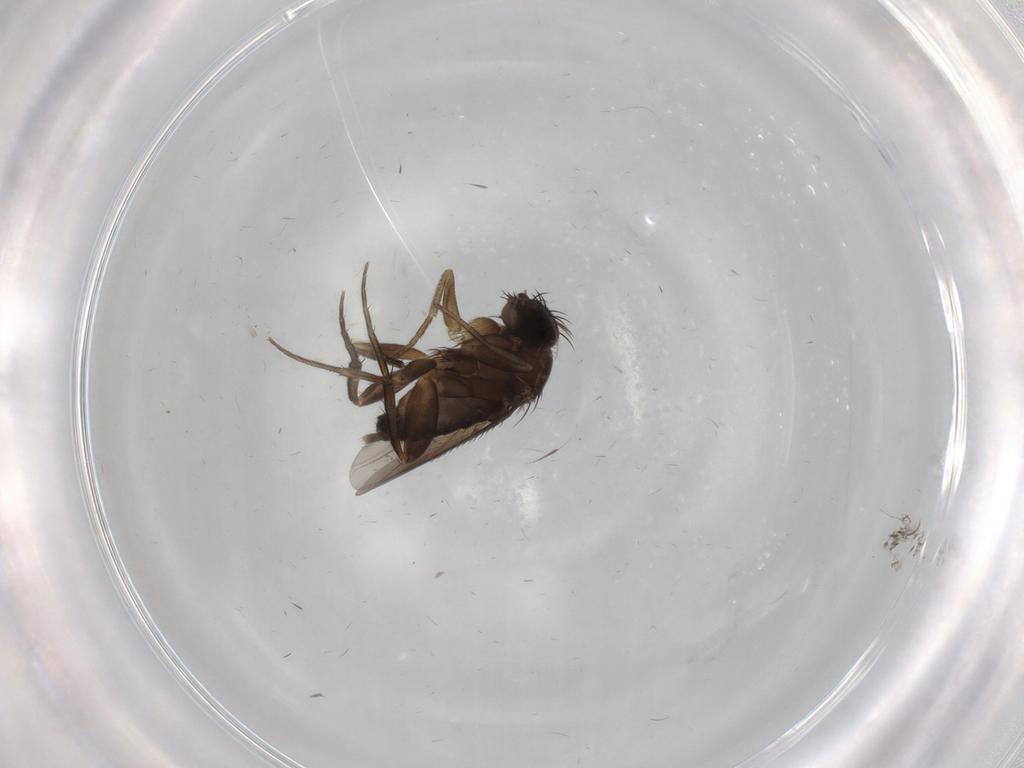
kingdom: Animalia
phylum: Arthropoda
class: Insecta
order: Diptera
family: Phoridae
